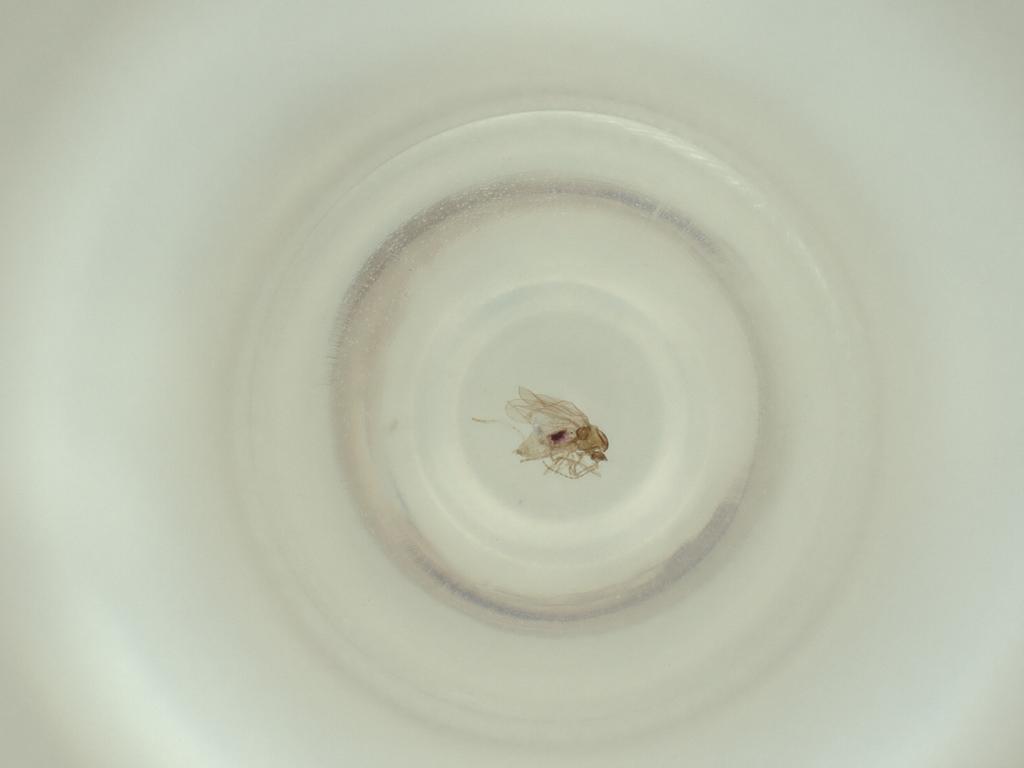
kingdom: Animalia
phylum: Arthropoda
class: Insecta
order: Diptera
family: Cecidomyiidae
